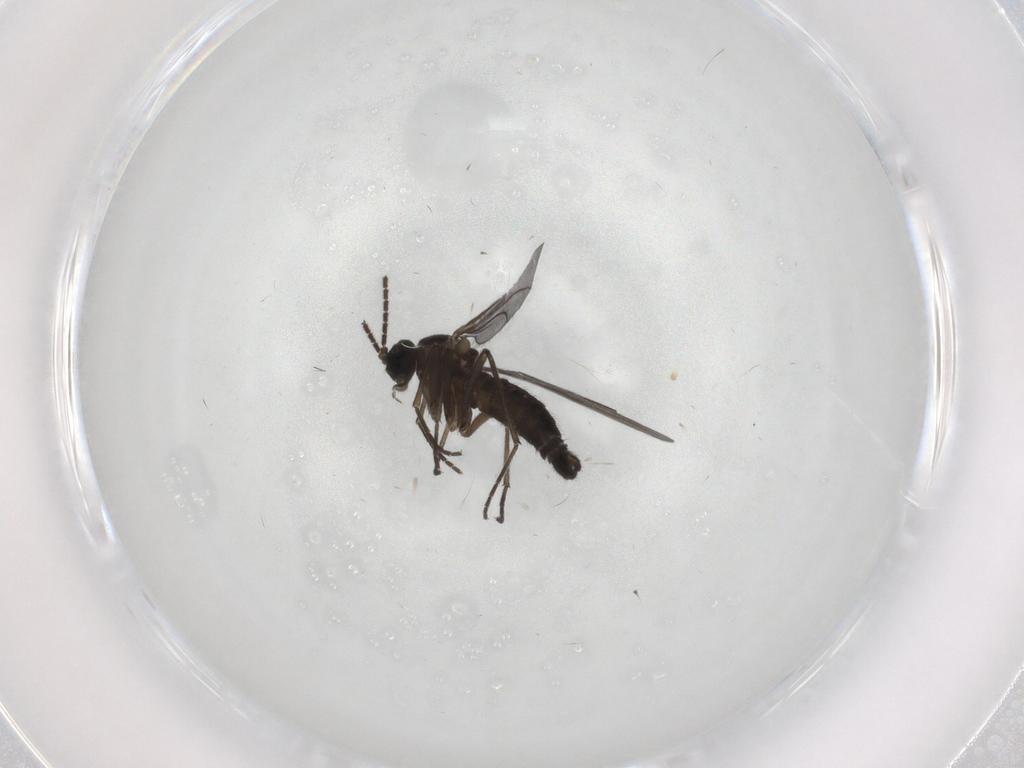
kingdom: Animalia
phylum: Arthropoda
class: Insecta
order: Diptera
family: Sciaridae
